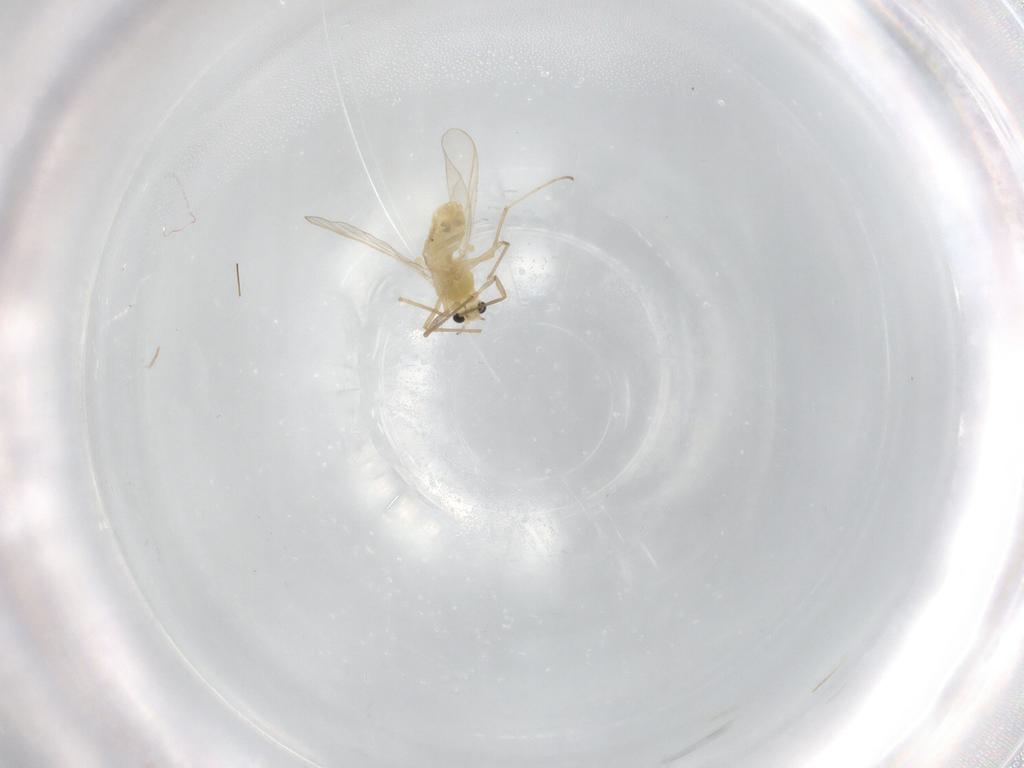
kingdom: Animalia
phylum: Arthropoda
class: Insecta
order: Diptera
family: Chironomidae
